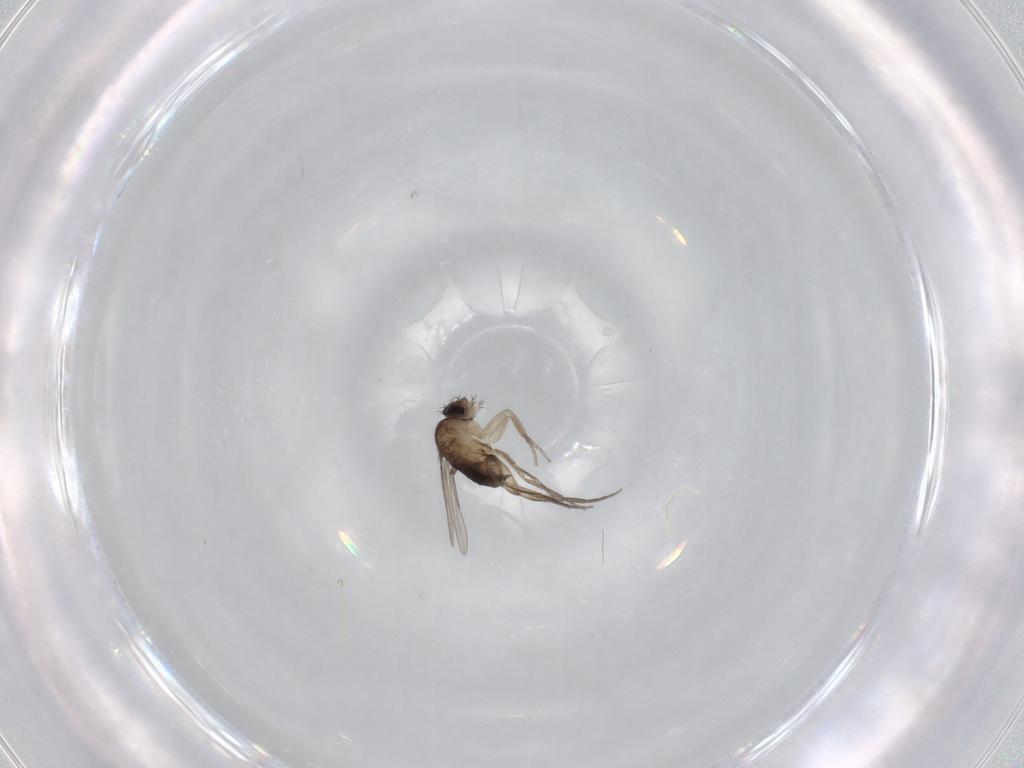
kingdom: Animalia
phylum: Arthropoda
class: Insecta
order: Diptera
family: Phoridae
